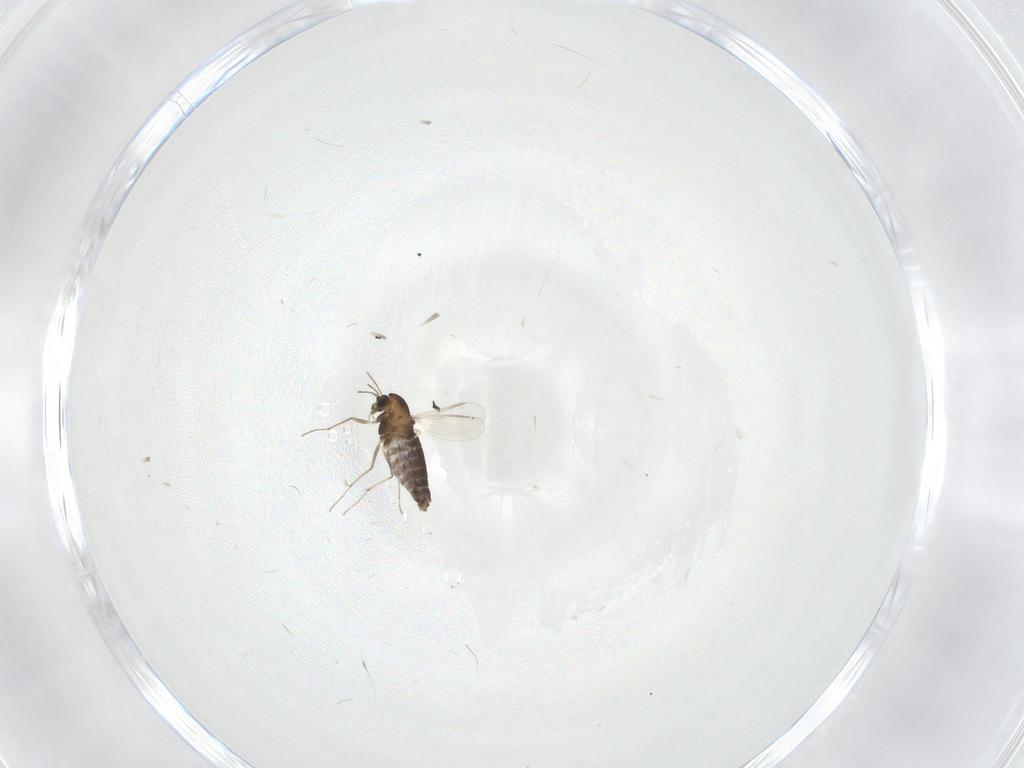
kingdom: Animalia
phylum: Arthropoda
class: Insecta
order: Diptera
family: Chironomidae
